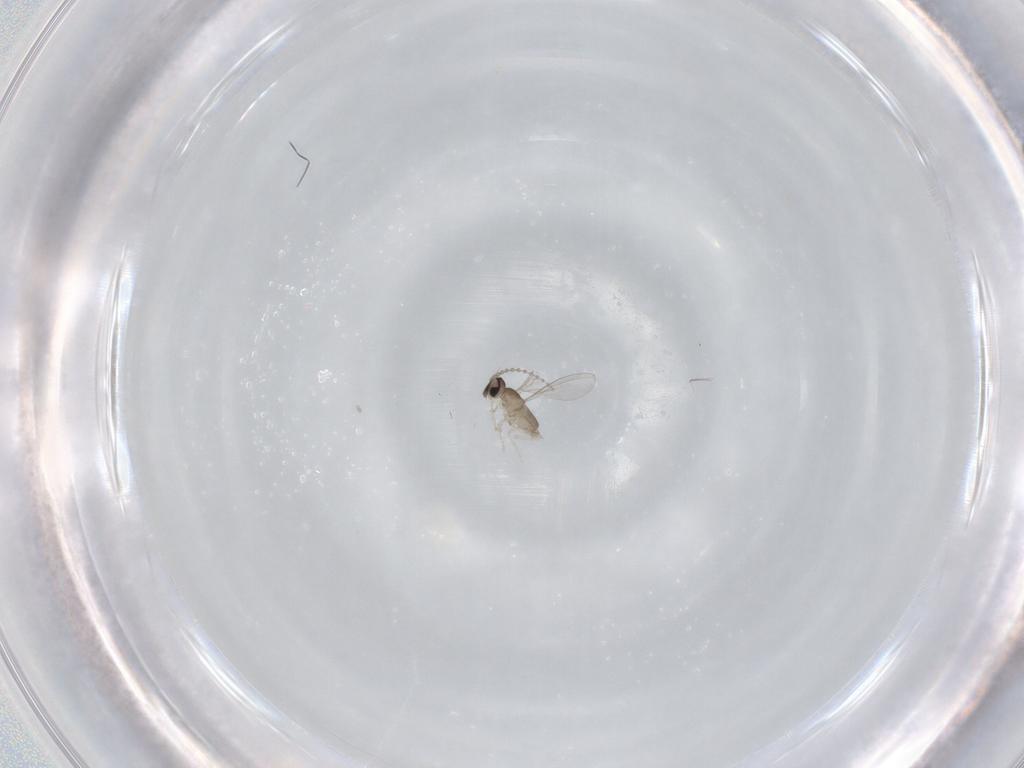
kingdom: Animalia
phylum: Arthropoda
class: Insecta
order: Diptera
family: Cecidomyiidae
